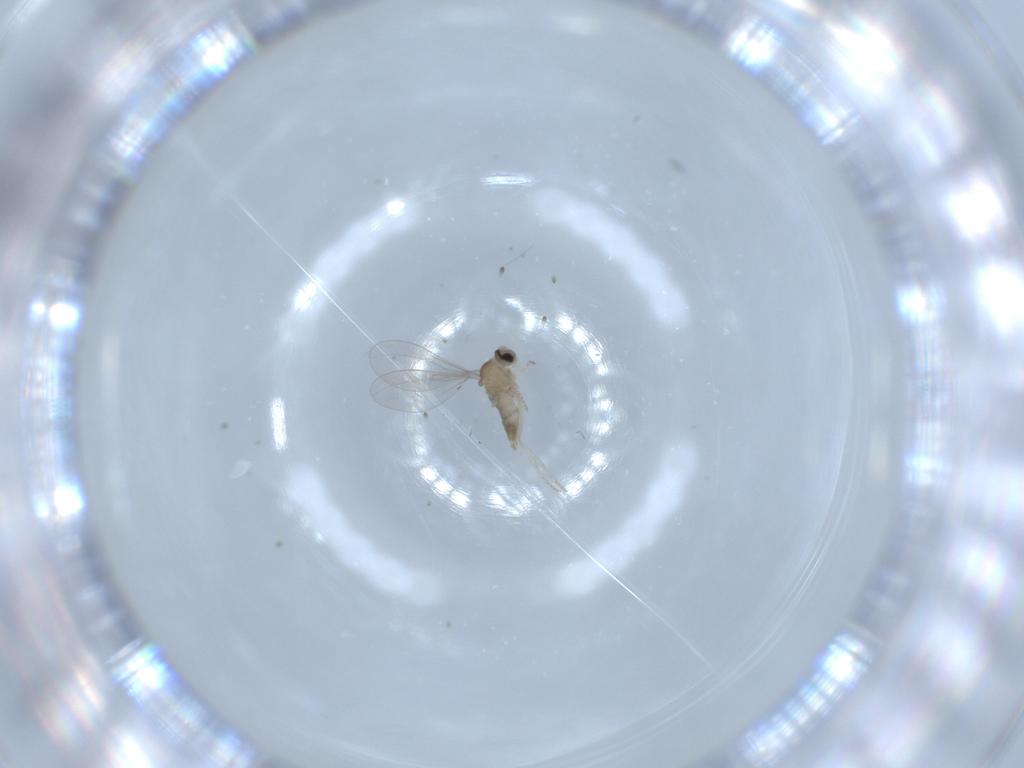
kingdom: Animalia
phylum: Arthropoda
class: Insecta
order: Diptera
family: Cecidomyiidae
